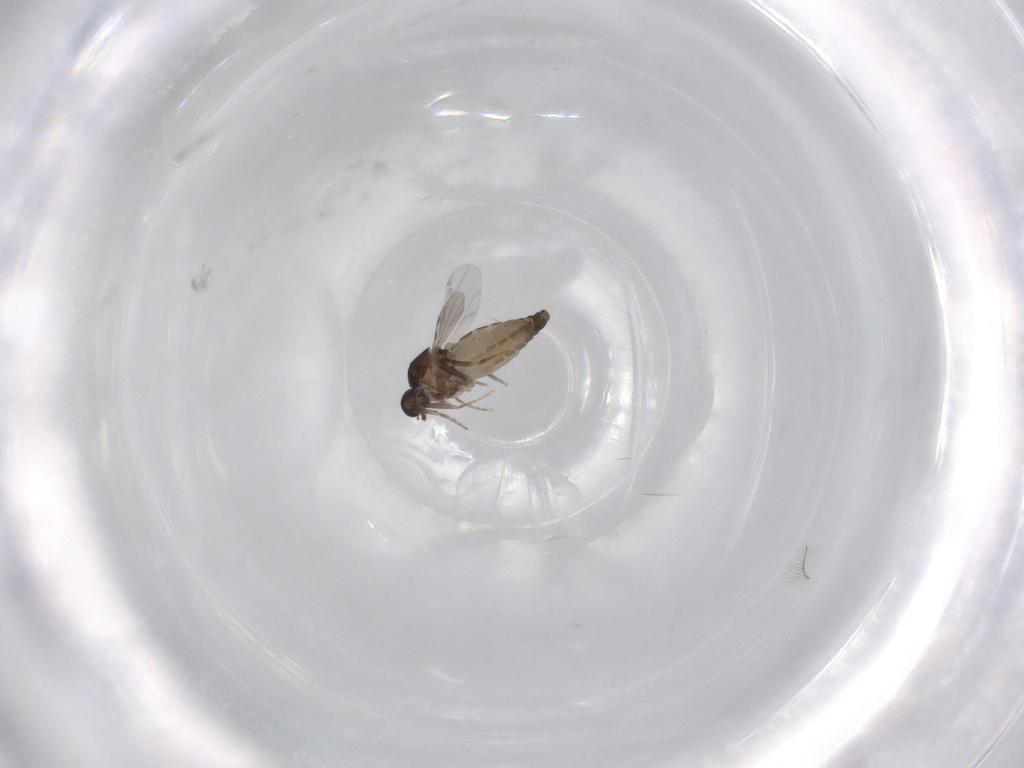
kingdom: Animalia
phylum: Arthropoda
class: Insecta
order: Diptera
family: Ceratopogonidae
